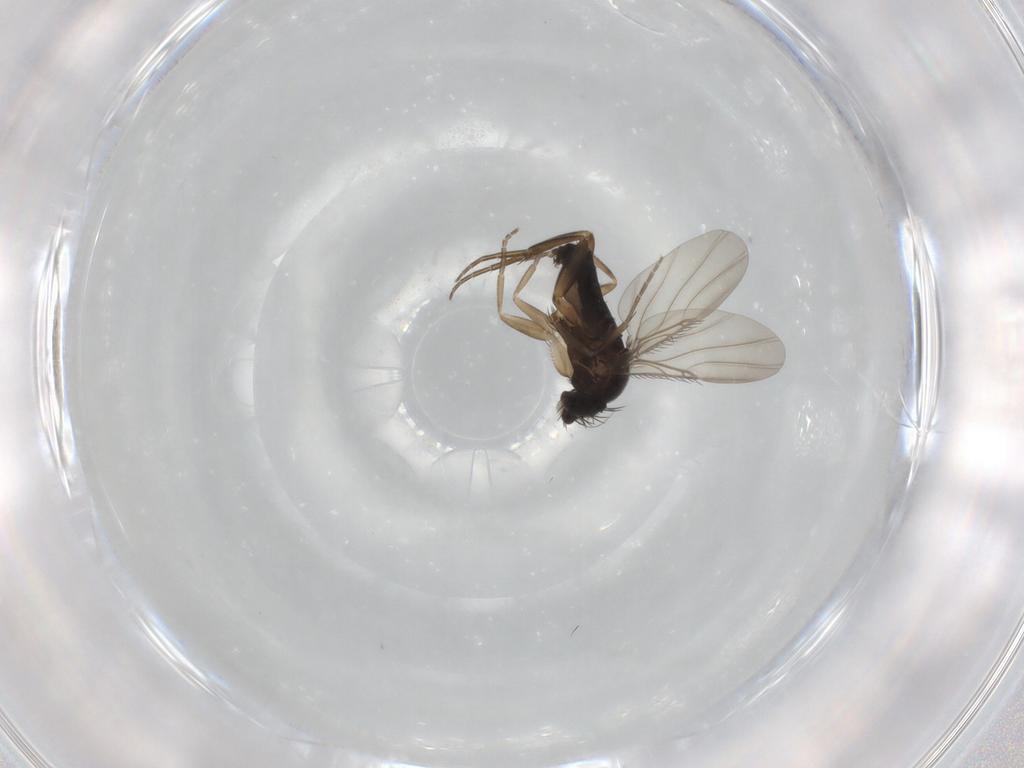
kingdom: Animalia
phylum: Arthropoda
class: Insecta
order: Diptera
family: Phoridae
